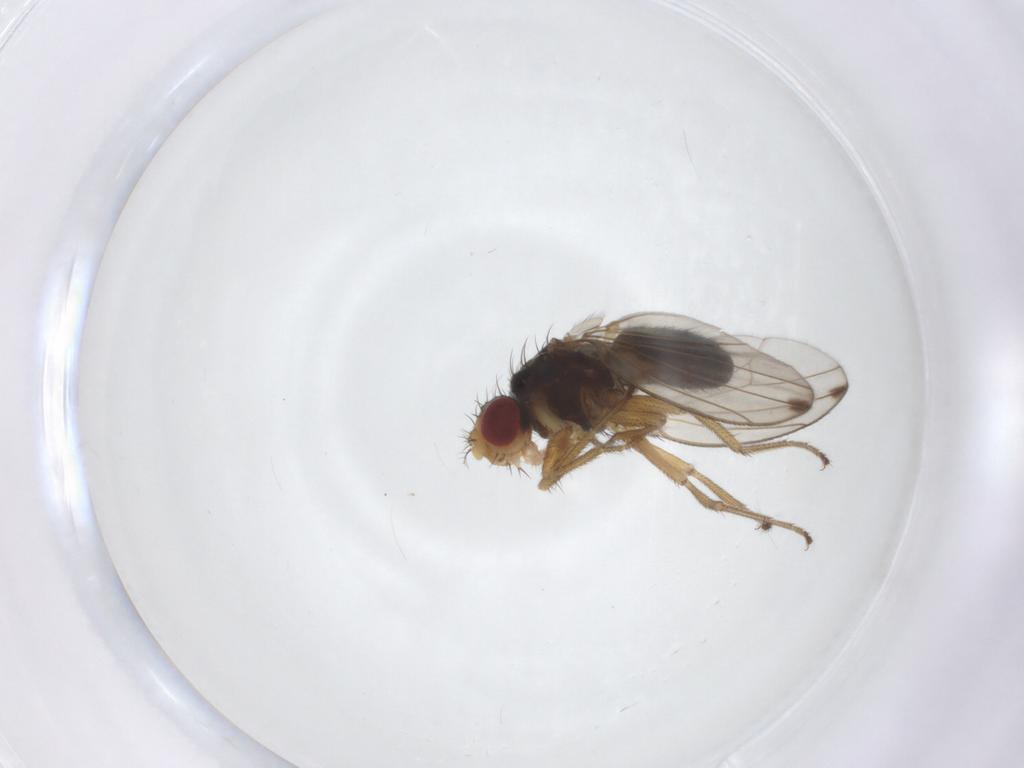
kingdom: Animalia
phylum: Arthropoda
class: Insecta
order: Diptera
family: Drosophilidae
